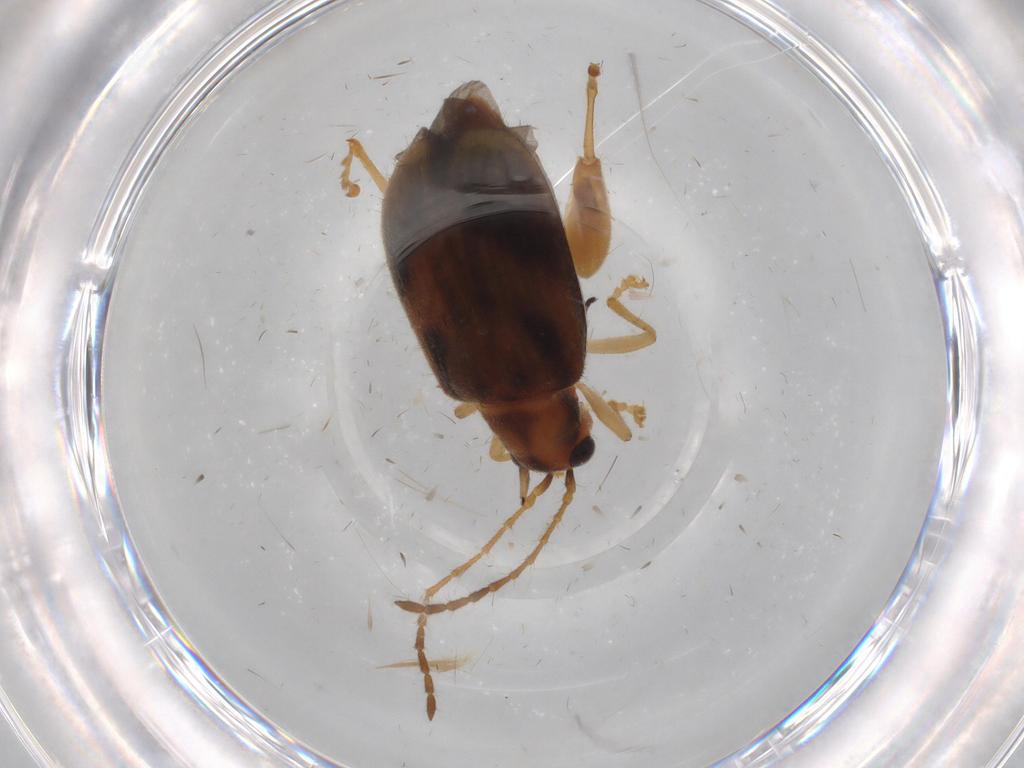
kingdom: Animalia
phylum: Arthropoda
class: Insecta
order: Coleoptera
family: Chrysomelidae
